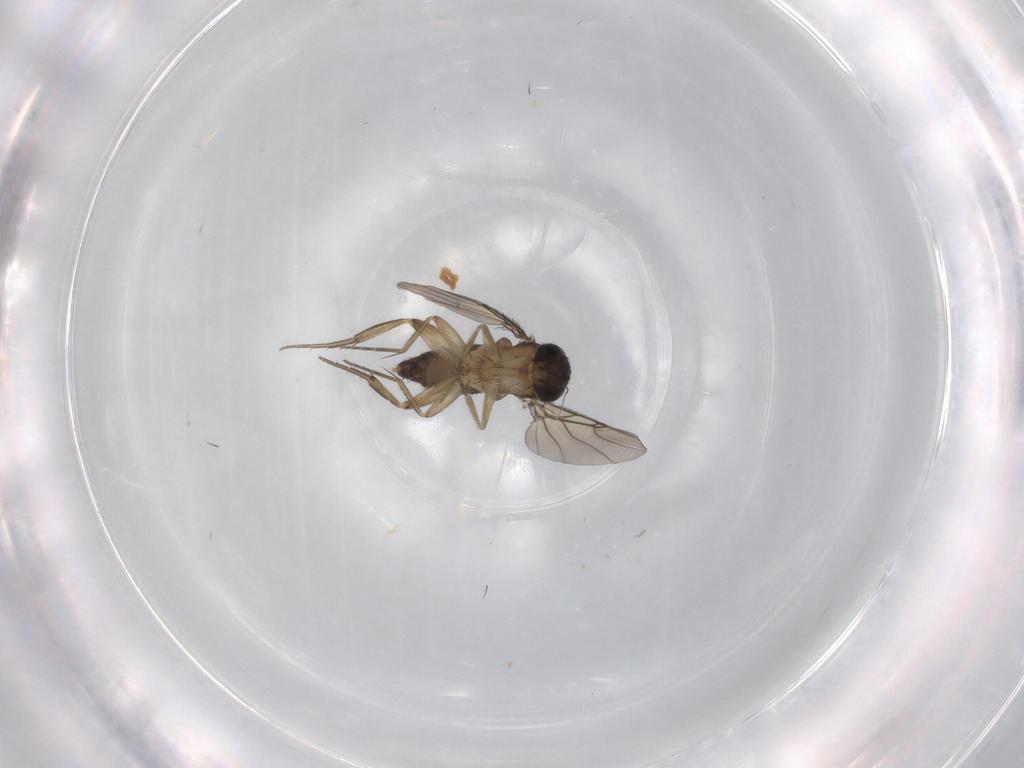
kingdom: Animalia
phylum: Arthropoda
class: Insecta
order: Diptera
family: Phoridae
